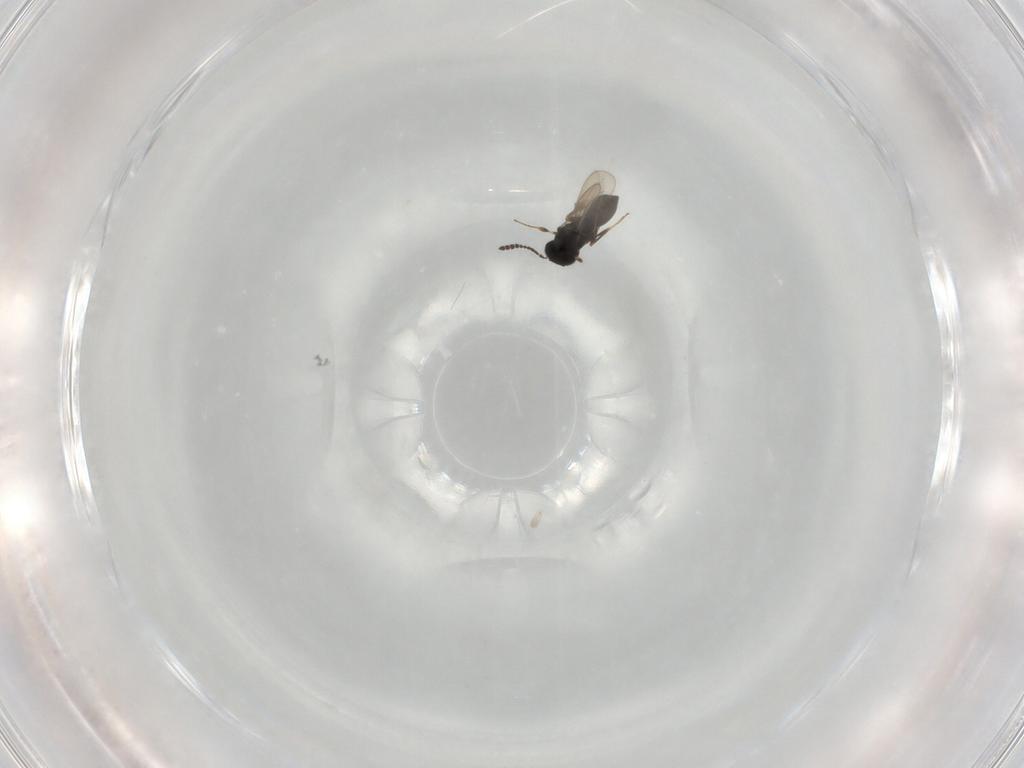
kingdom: Animalia
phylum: Arthropoda
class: Insecta
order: Hymenoptera
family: Scelionidae
